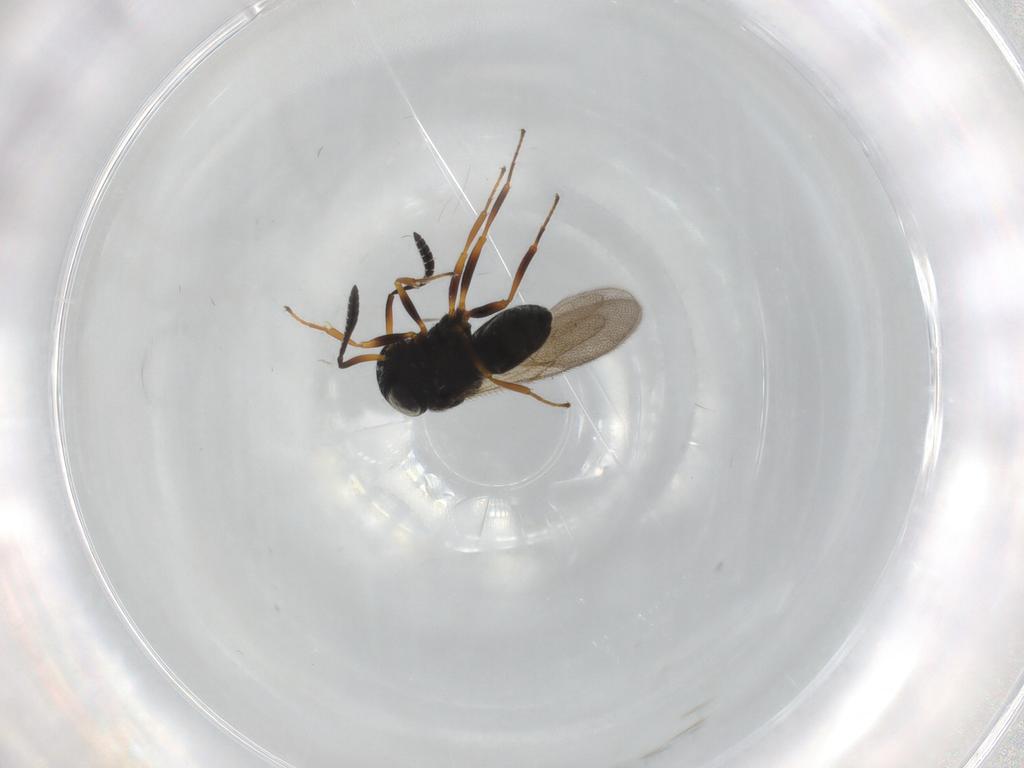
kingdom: Animalia
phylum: Arthropoda
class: Insecta
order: Hymenoptera
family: Scelionidae
